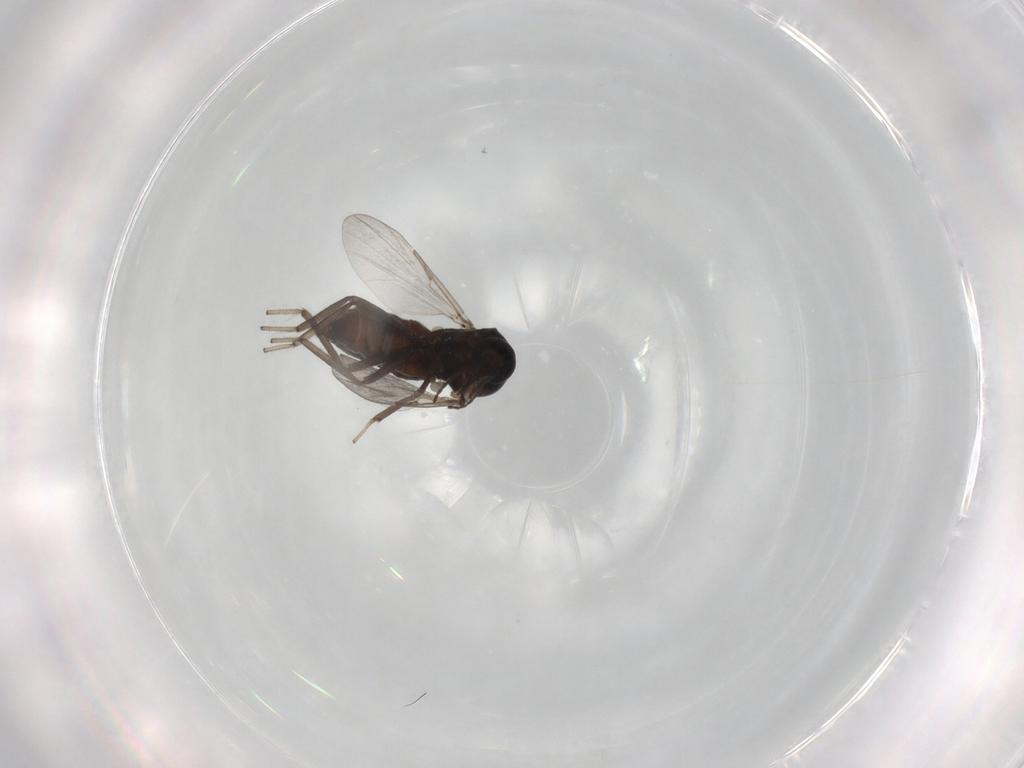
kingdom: Animalia
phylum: Arthropoda
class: Insecta
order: Diptera
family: Ceratopogonidae
